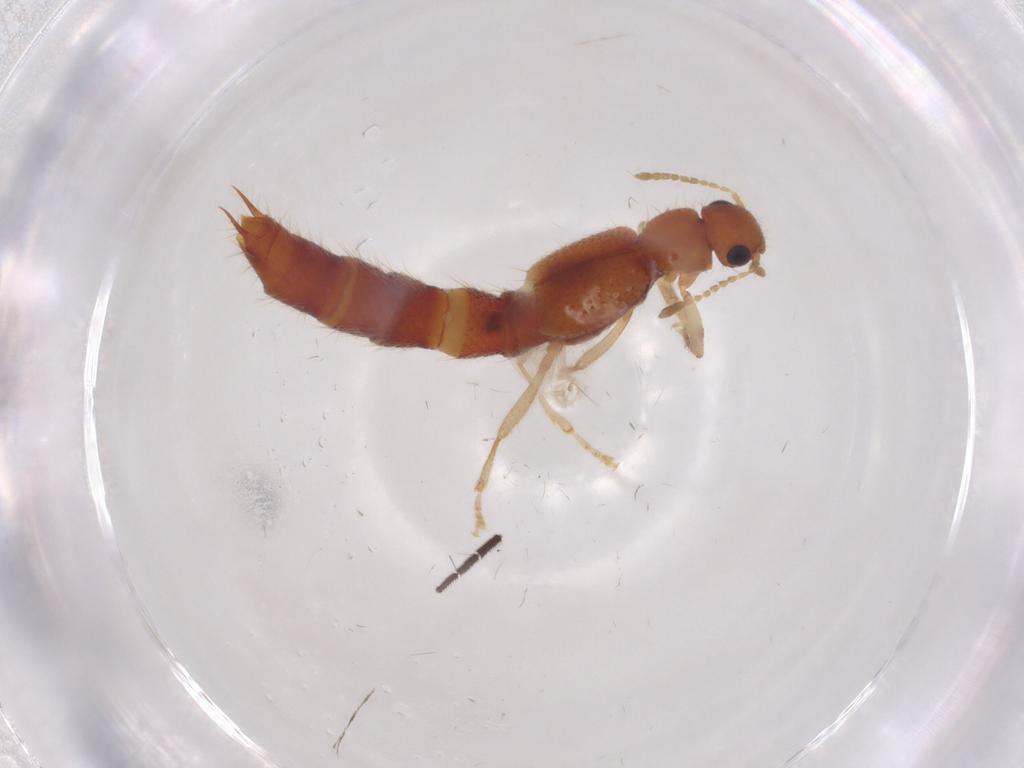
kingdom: Animalia
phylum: Arthropoda
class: Insecta
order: Coleoptera
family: Staphylinidae
